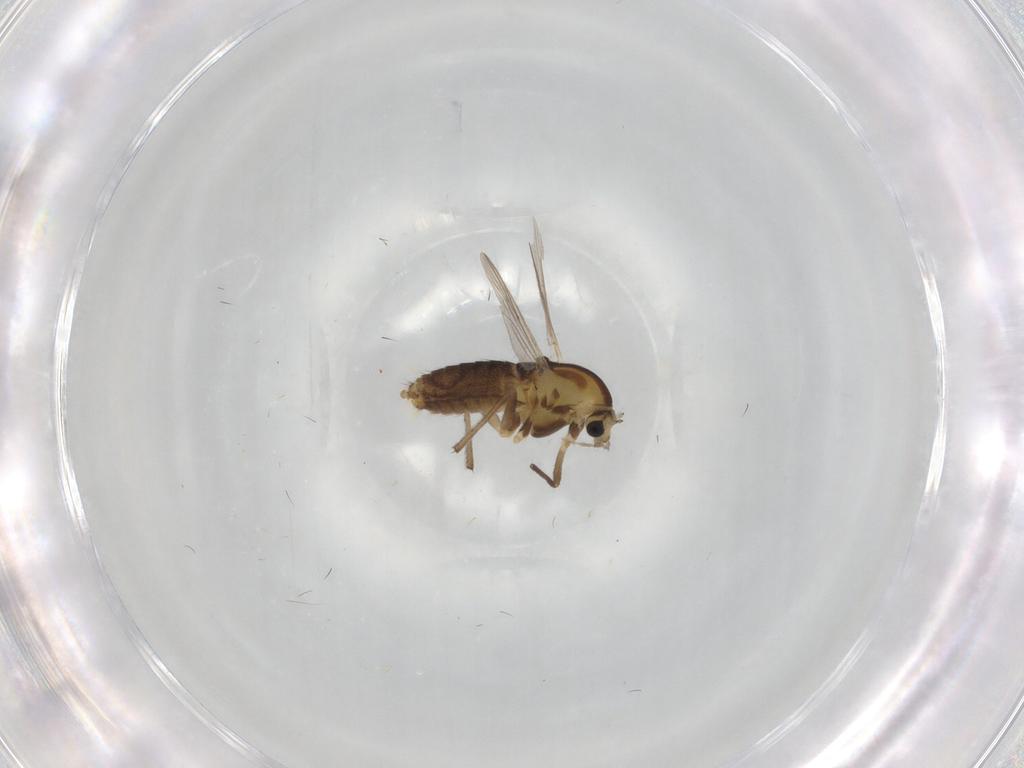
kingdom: Animalia
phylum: Arthropoda
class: Insecta
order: Diptera
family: Chironomidae
